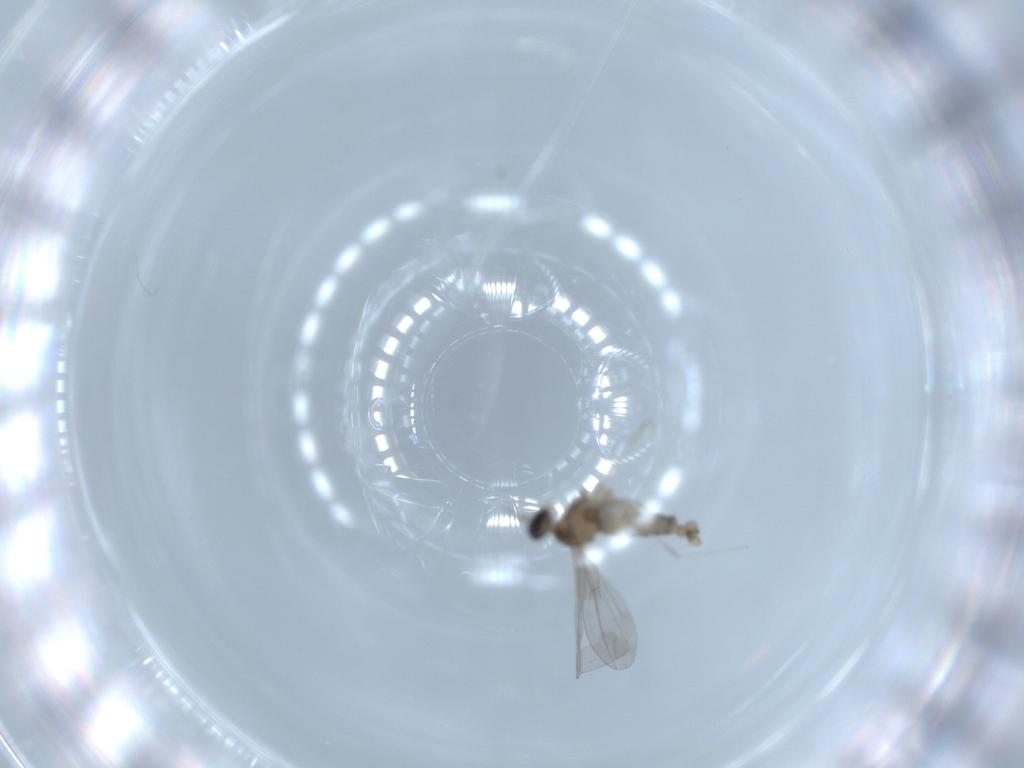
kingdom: Animalia
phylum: Arthropoda
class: Insecta
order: Diptera
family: Cecidomyiidae
